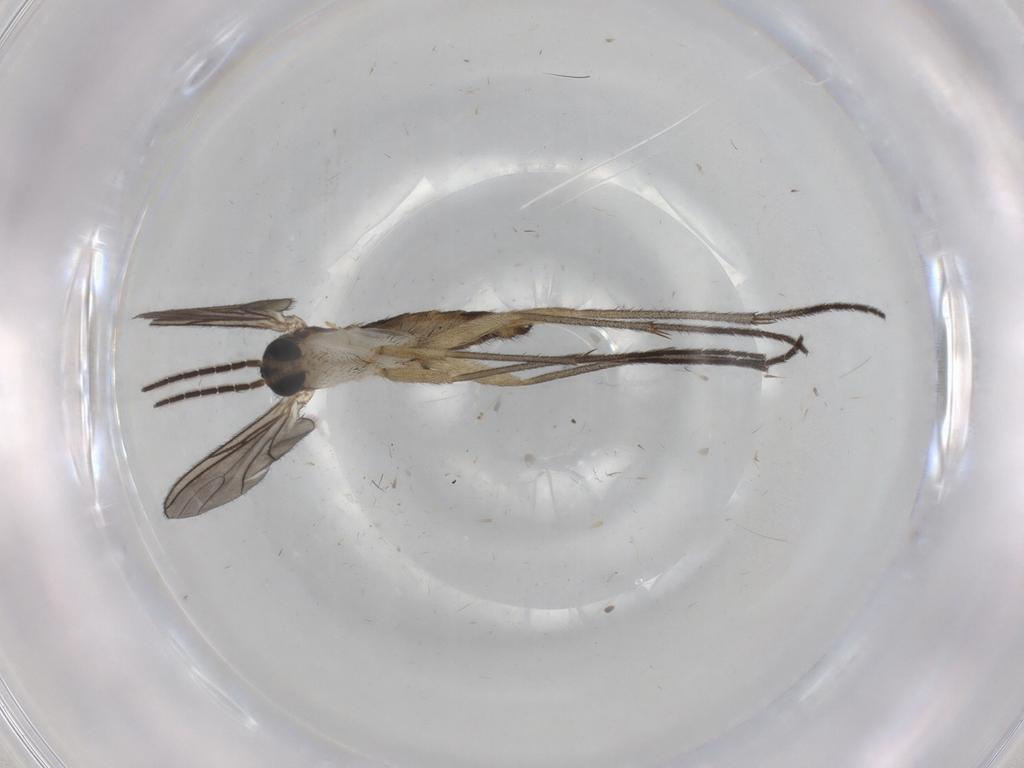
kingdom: Animalia
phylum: Arthropoda
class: Insecta
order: Diptera
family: Sciaridae
